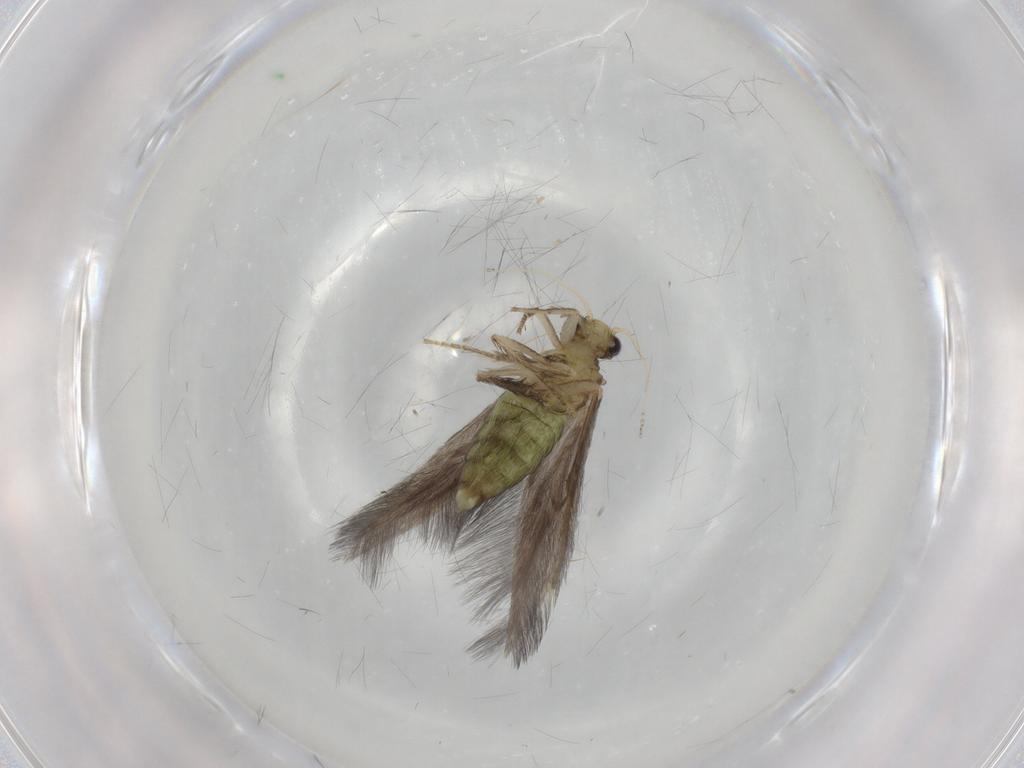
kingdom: Animalia
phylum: Arthropoda
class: Insecta
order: Trichoptera
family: Hydroptilidae
